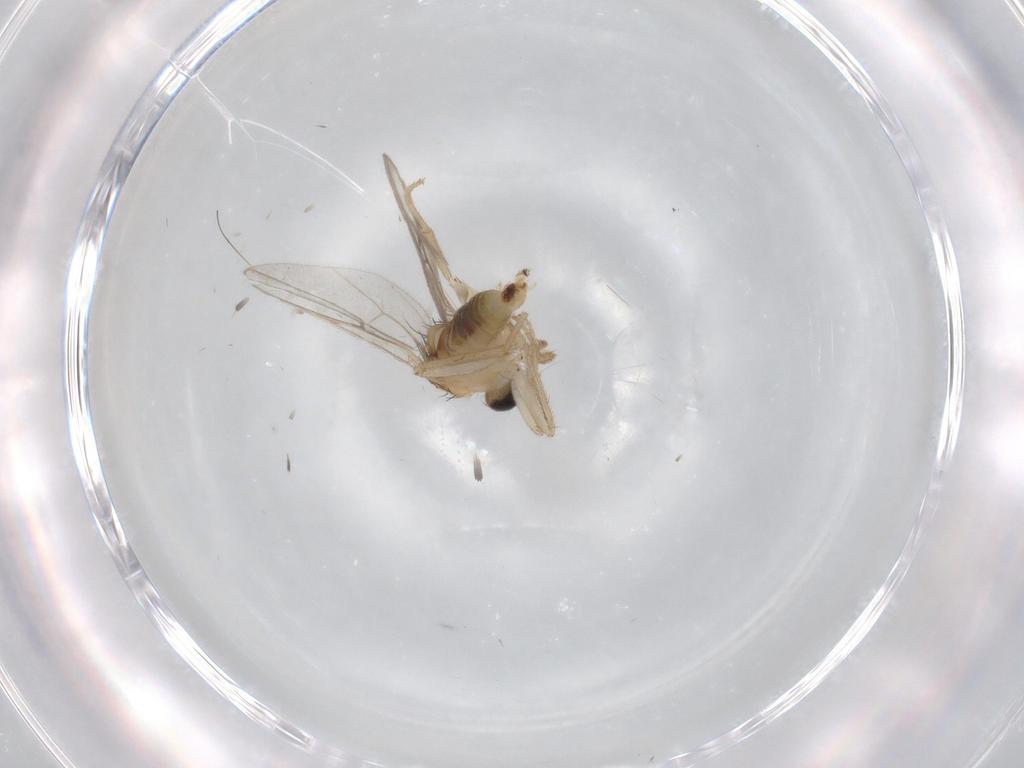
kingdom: Animalia
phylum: Arthropoda
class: Insecta
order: Diptera
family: Hybotidae
